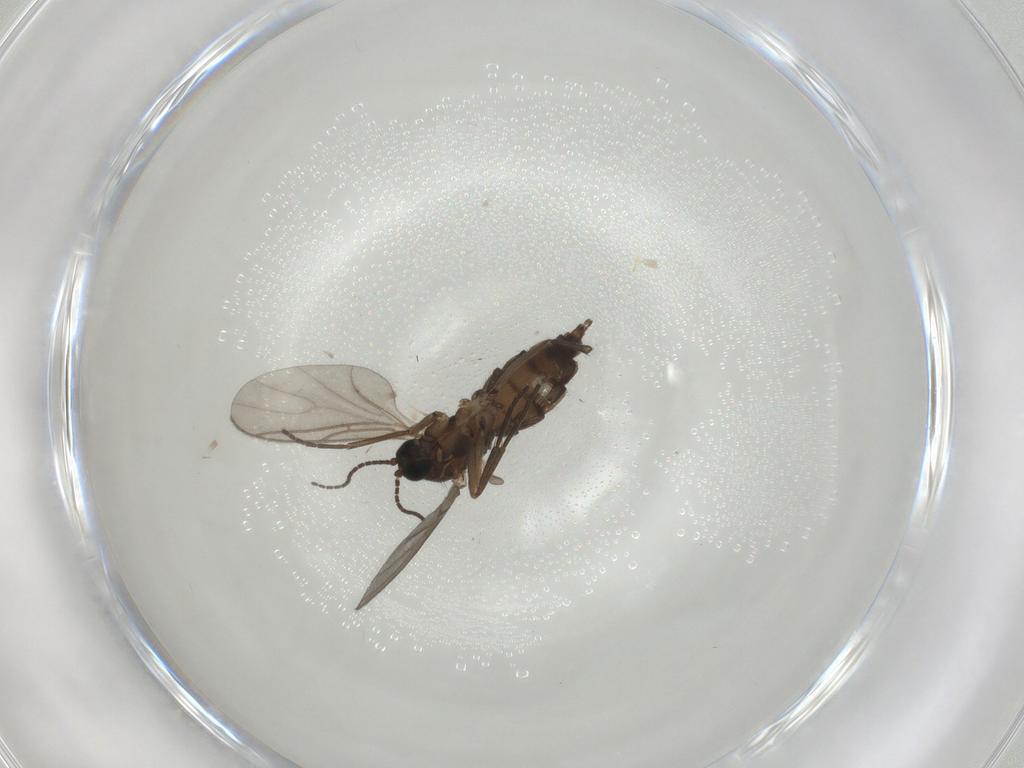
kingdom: Animalia
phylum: Arthropoda
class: Insecta
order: Diptera
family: Sciaridae
